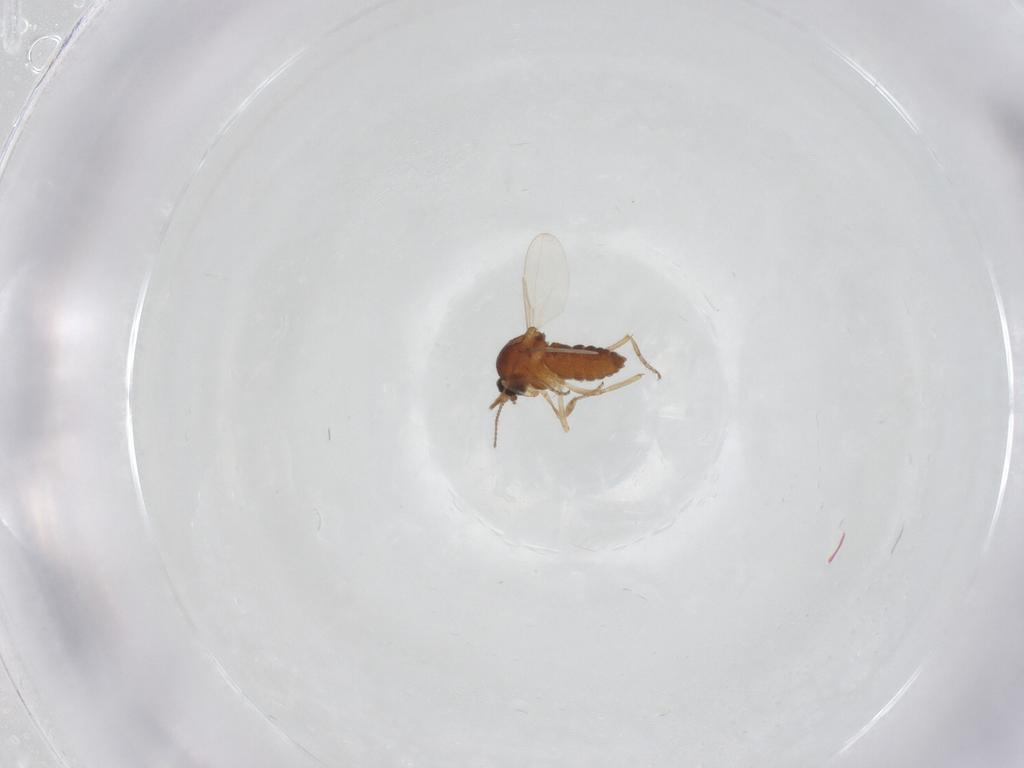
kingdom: Animalia
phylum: Arthropoda
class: Insecta
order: Diptera
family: Ceratopogonidae
